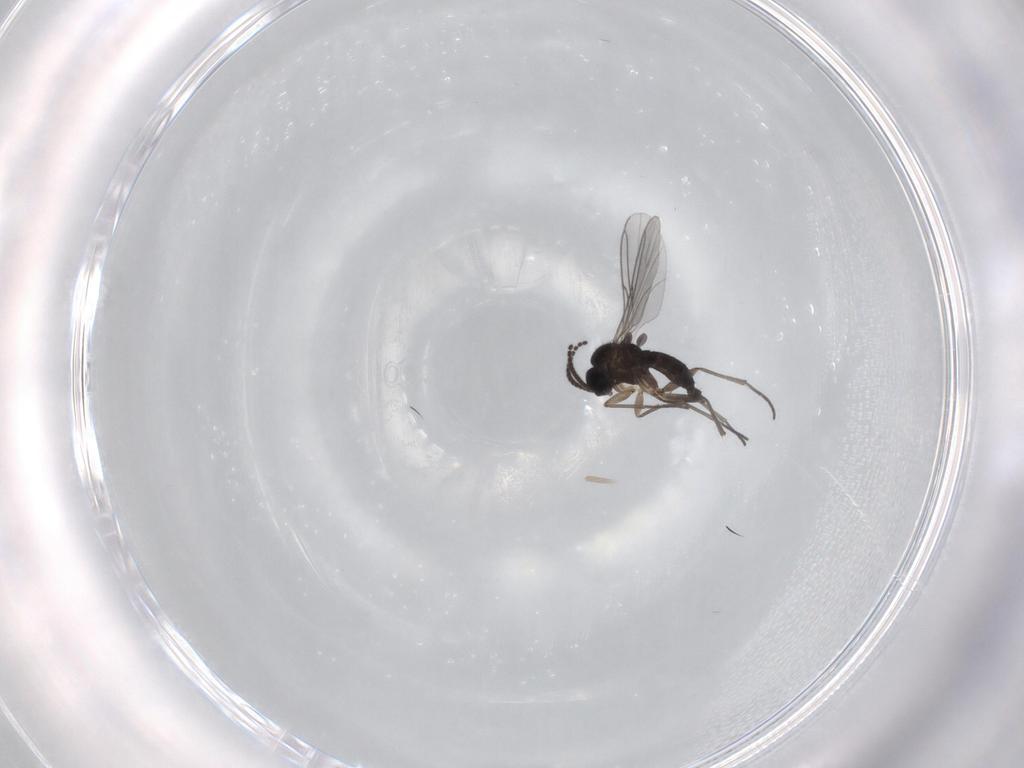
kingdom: Animalia
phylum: Arthropoda
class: Insecta
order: Diptera
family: Sciaridae
